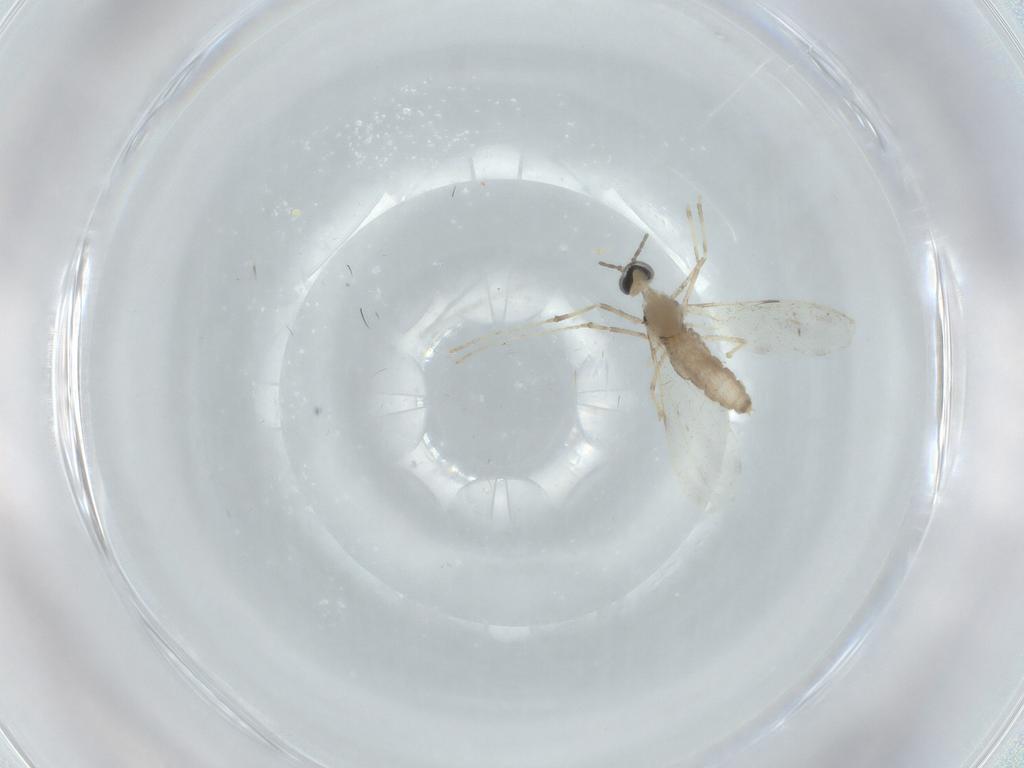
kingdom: Animalia
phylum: Arthropoda
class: Insecta
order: Diptera
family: Cecidomyiidae
